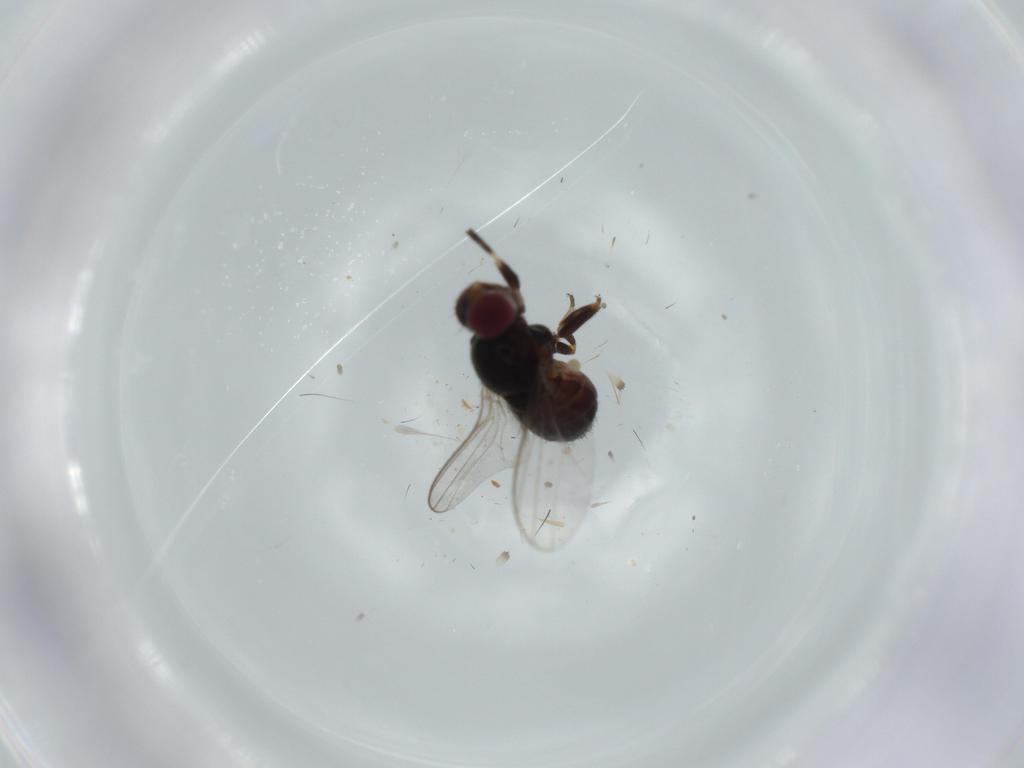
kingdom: Animalia
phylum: Arthropoda
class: Insecta
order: Diptera
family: Chloropidae
